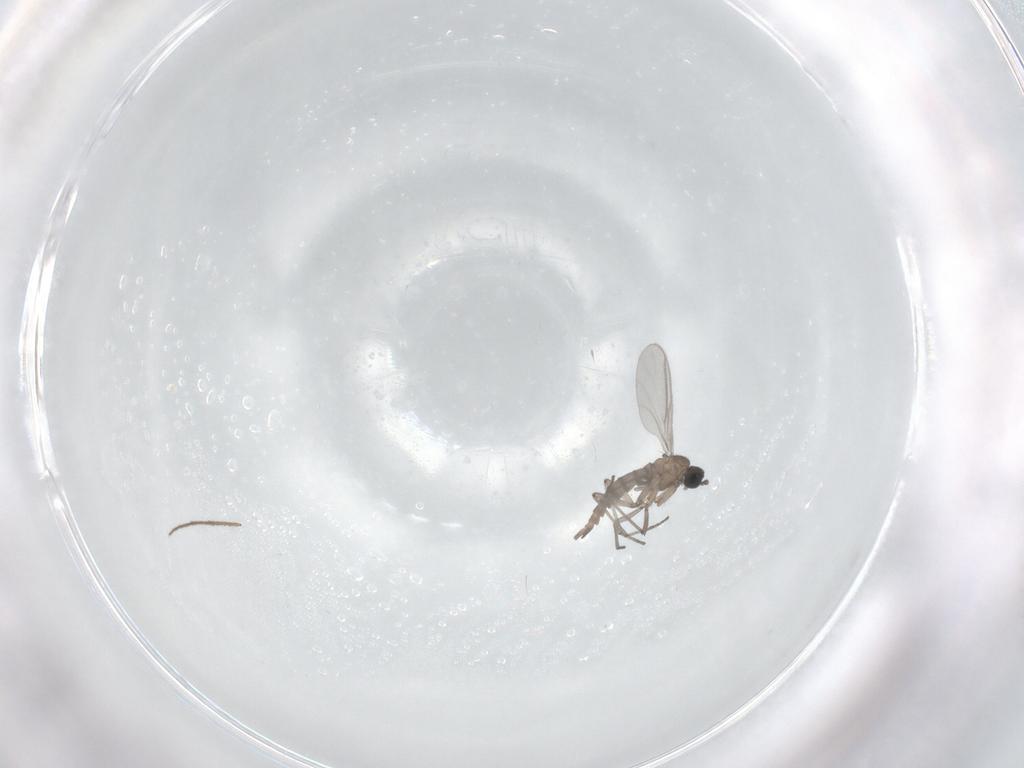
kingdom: Animalia
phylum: Arthropoda
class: Insecta
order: Diptera
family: Chironomidae
